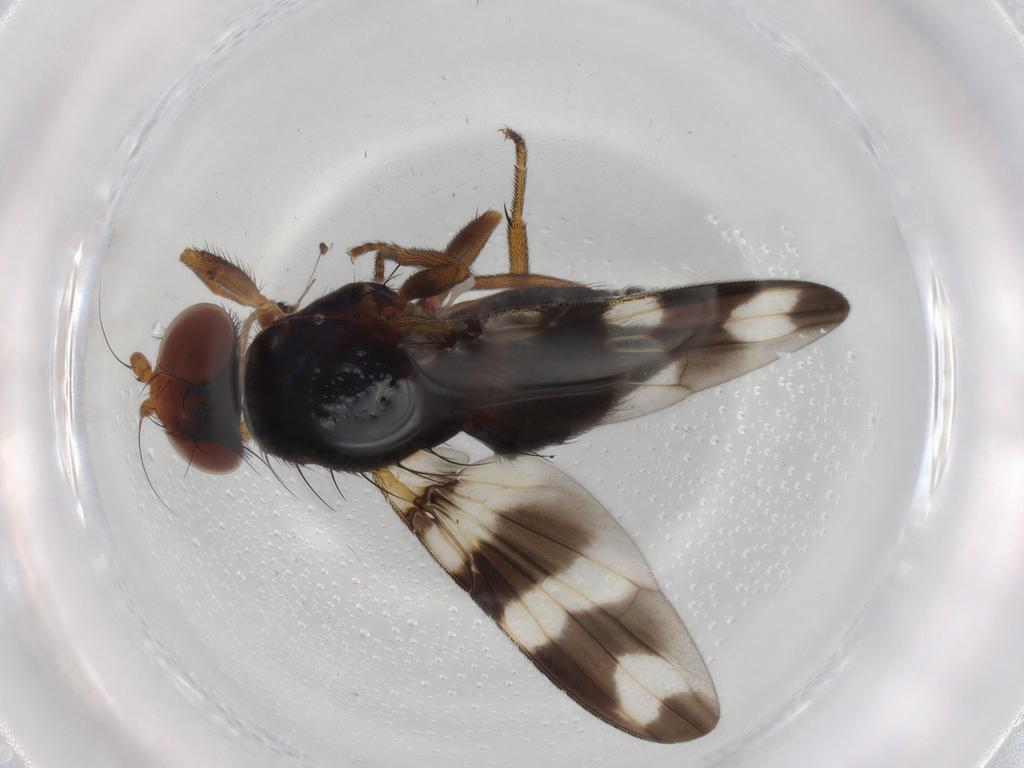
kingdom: Animalia
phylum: Arthropoda
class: Insecta
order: Diptera
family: Ulidiidae
